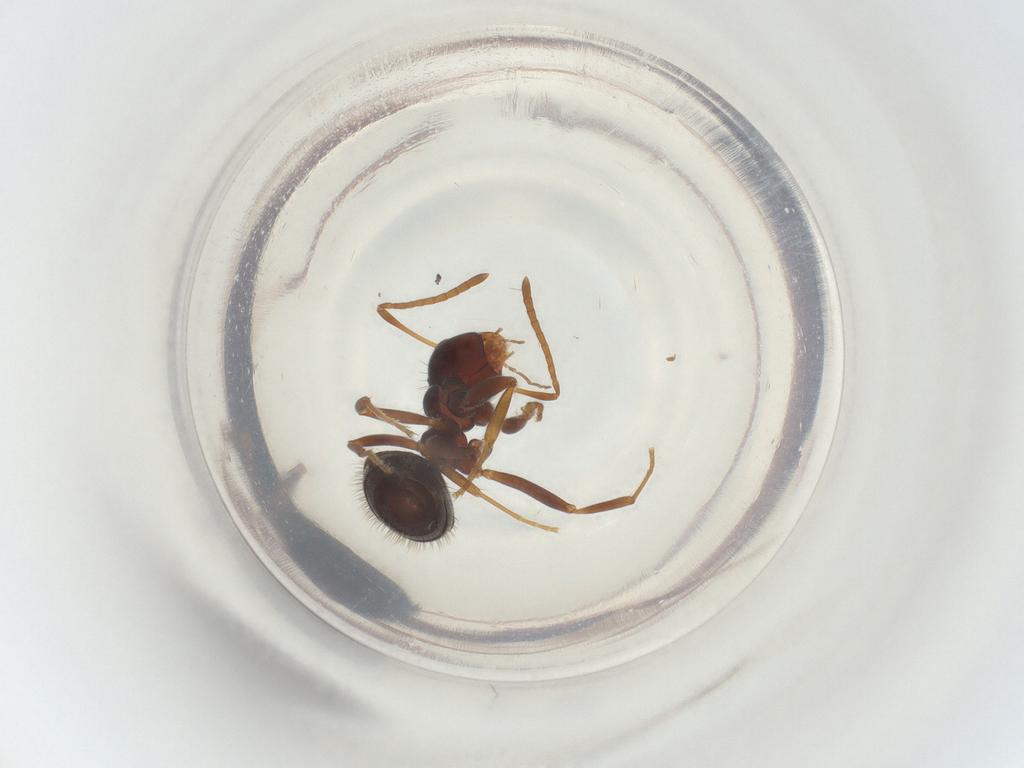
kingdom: Animalia
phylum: Arthropoda
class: Insecta
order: Hymenoptera
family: Formicidae
